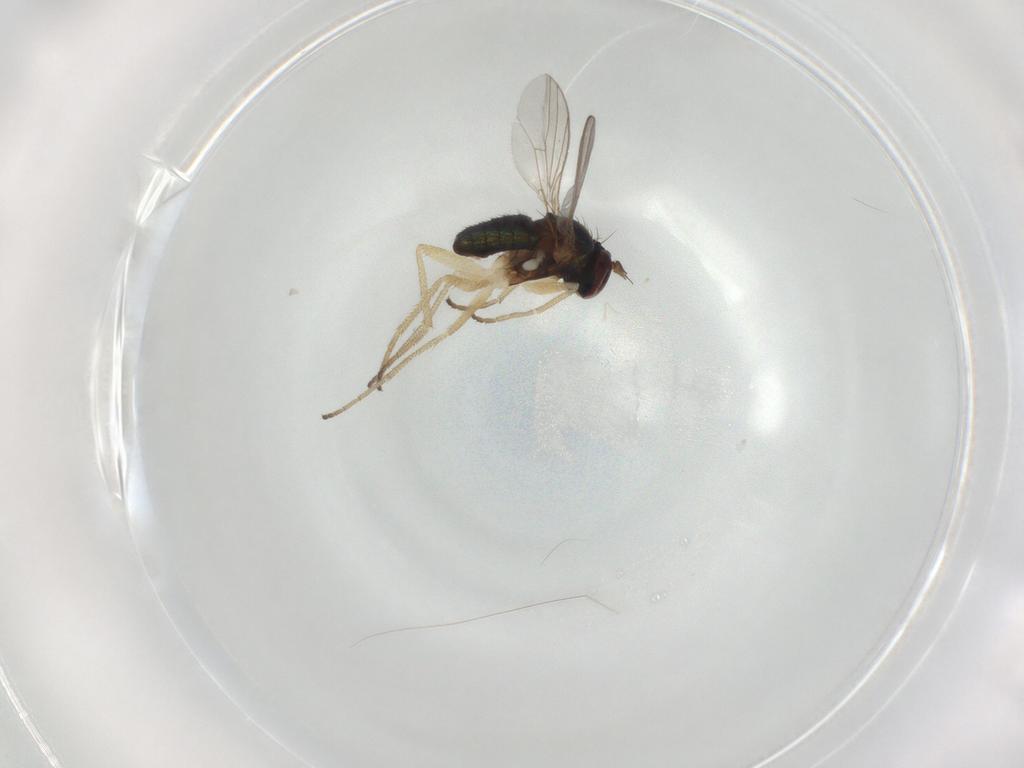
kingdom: Animalia
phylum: Arthropoda
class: Insecta
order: Diptera
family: Dolichopodidae
